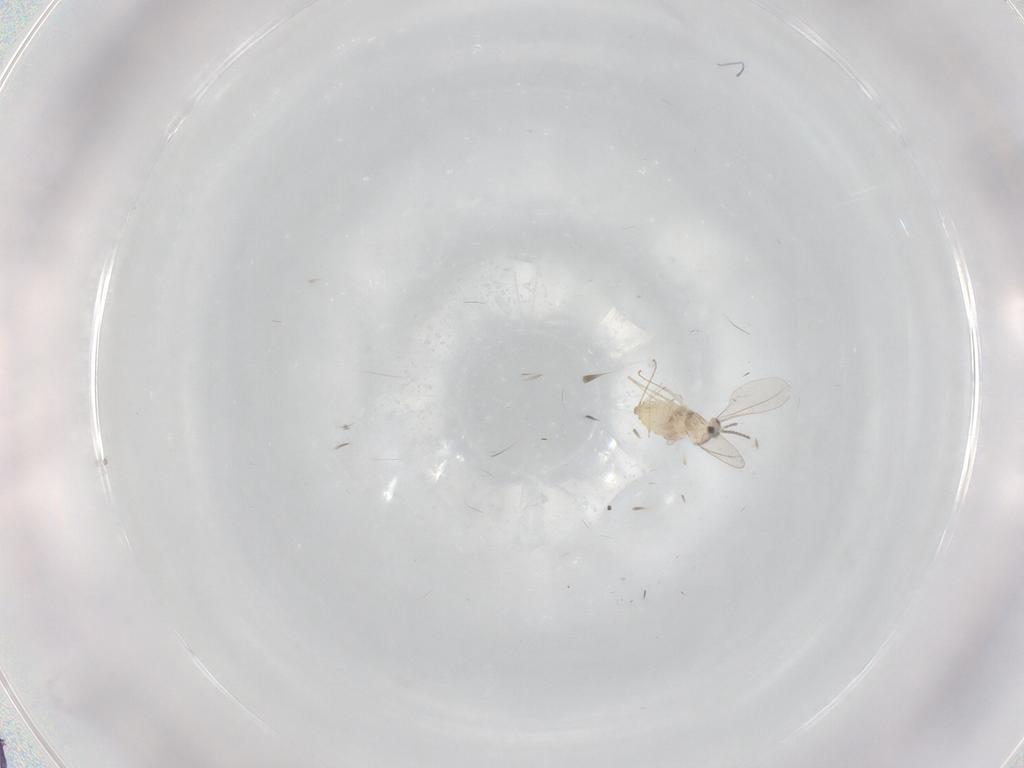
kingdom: Animalia
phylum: Arthropoda
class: Insecta
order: Diptera
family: Cecidomyiidae
